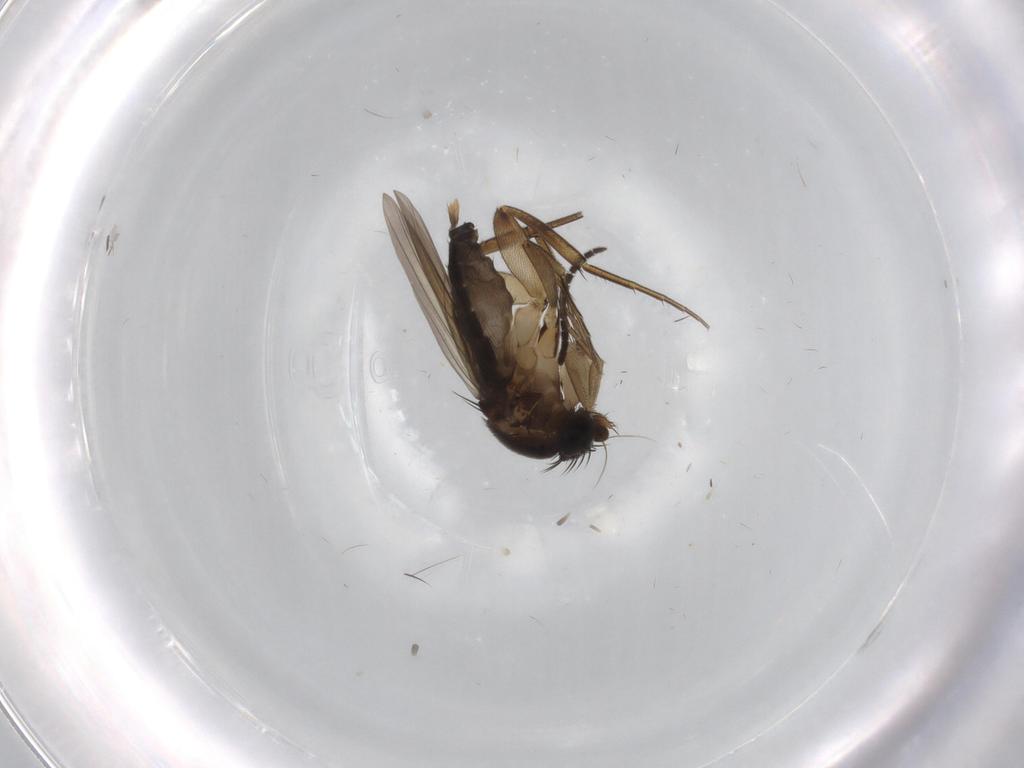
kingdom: Animalia
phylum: Arthropoda
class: Insecta
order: Diptera
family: Phoridae
